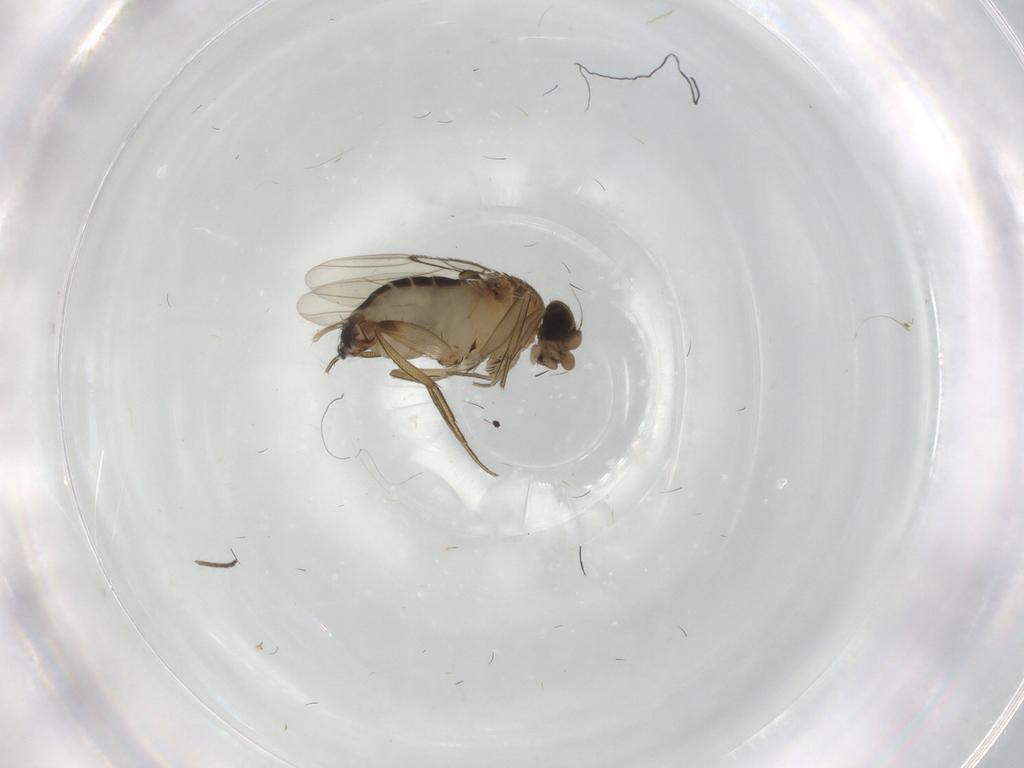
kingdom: Animalia
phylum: Arthropoda
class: Insecta
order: Diptera
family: Phoridae
